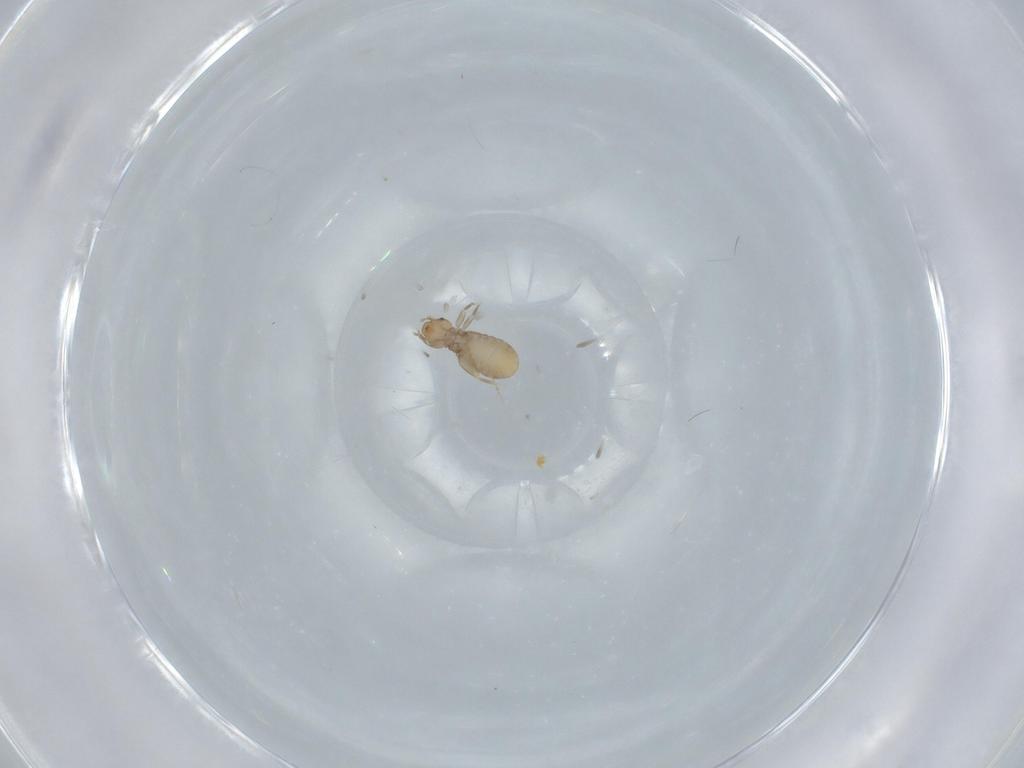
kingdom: Animalia
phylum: Arthropoda
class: Insecta
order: Psocodea
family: Liposcelididae
